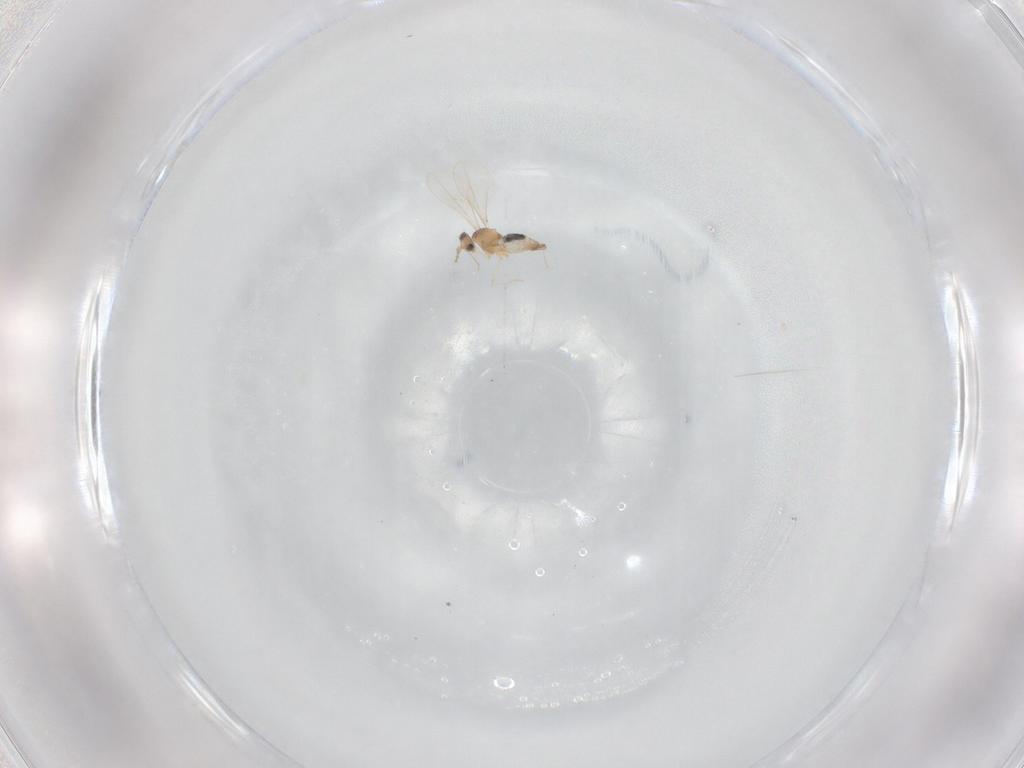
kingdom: Animalia
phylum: Arthropoda
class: Insecta
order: Diptera
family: Cecidomyiidae
